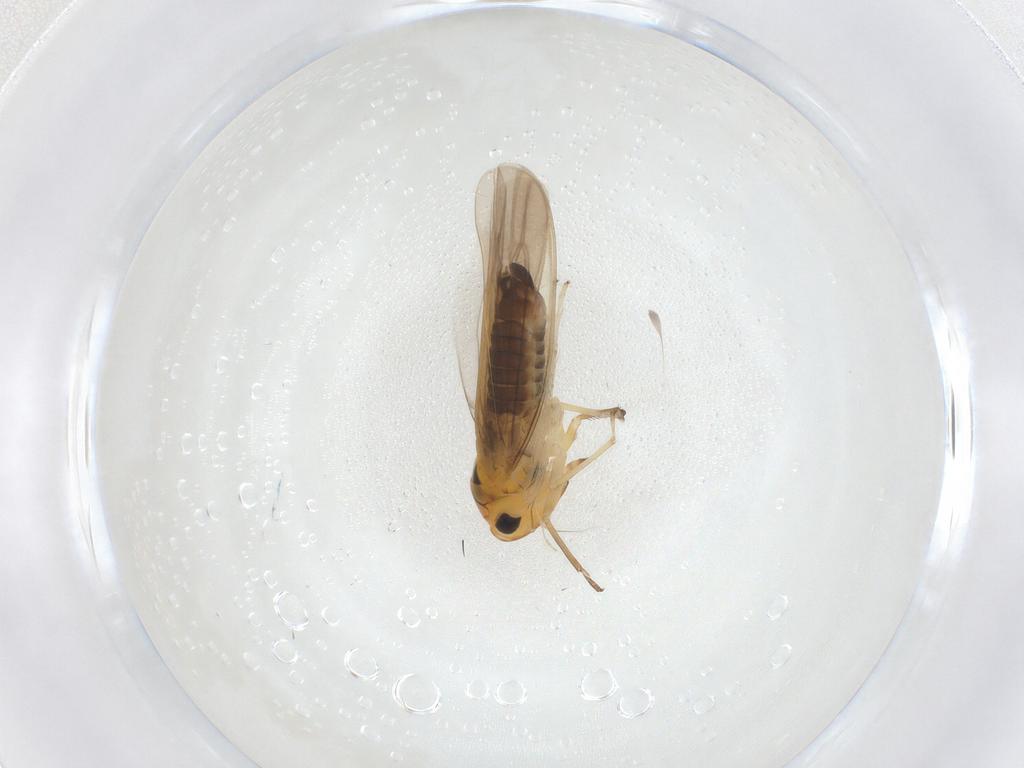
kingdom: Animalia
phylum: Arthropoda
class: Insecta
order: Hemiptera
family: Cicadellidae
